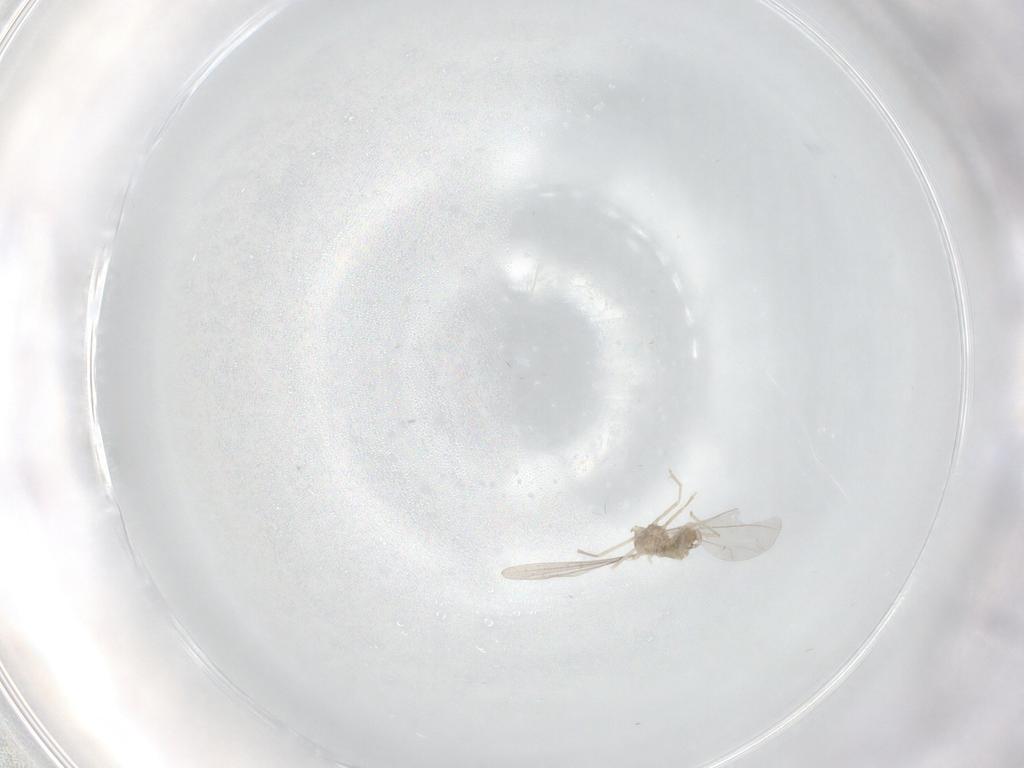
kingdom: Animalia
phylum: Arthropoda
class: Insecta
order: Diptera
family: Cecidomyiidae
